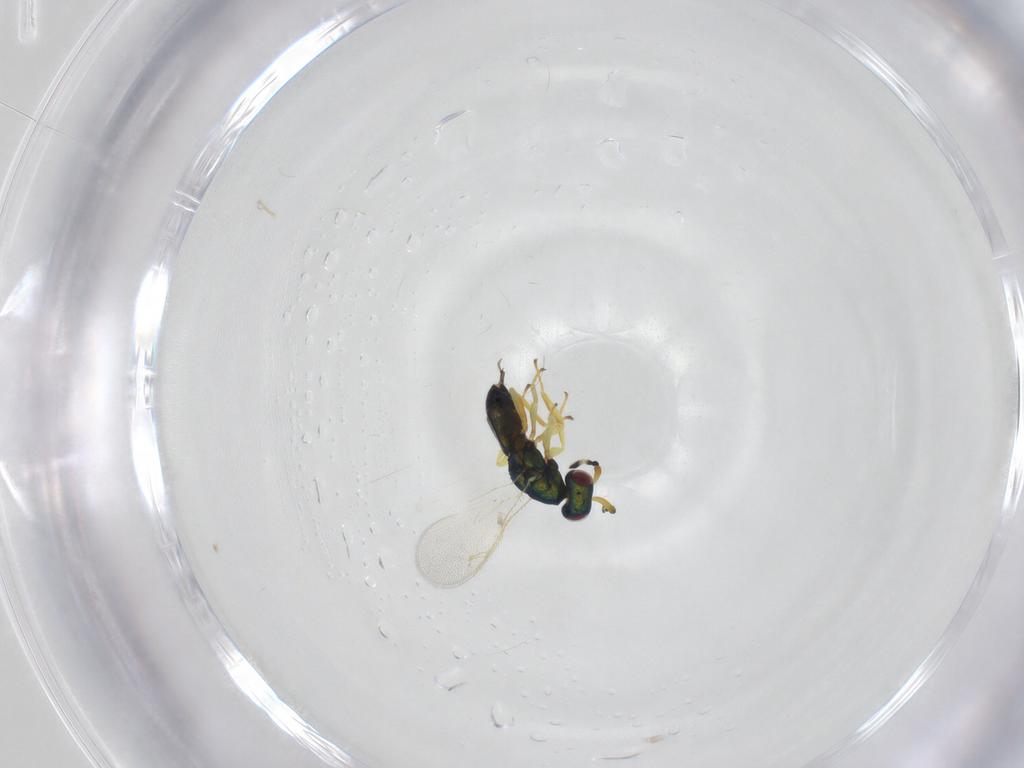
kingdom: Animalia
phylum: Arthropoda
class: Insecta
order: Hymenoptera
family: Pteromalidae
